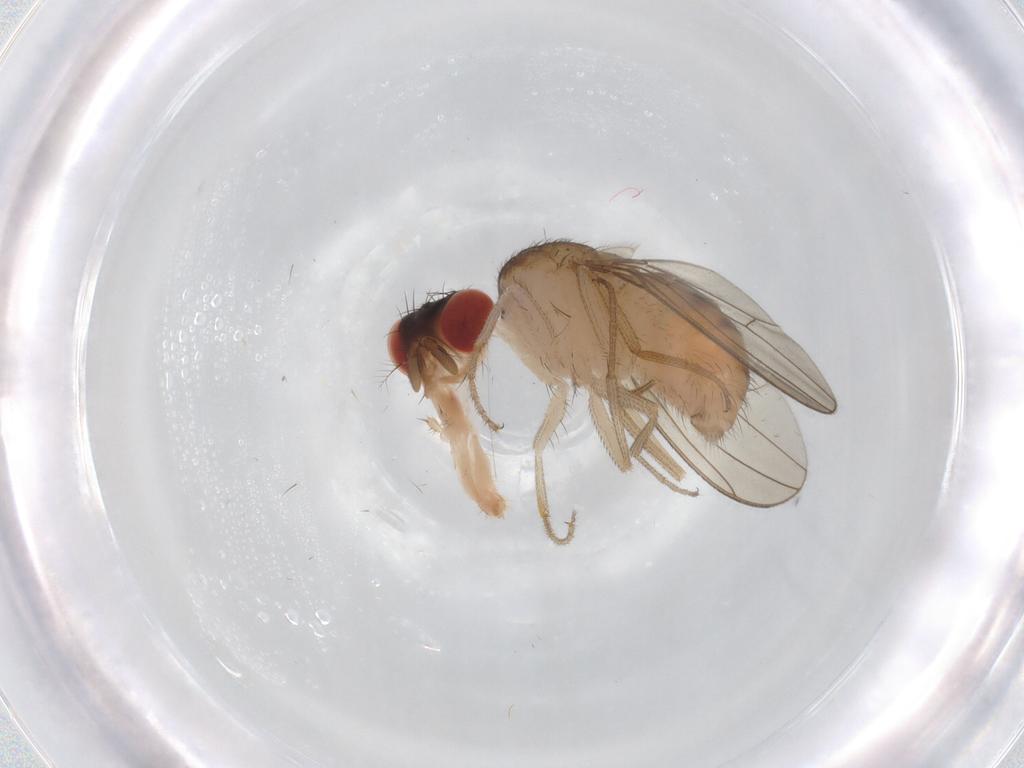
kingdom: Animalia
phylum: Arthropoda
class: Insecta
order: Diptera
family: Drosophilidae
